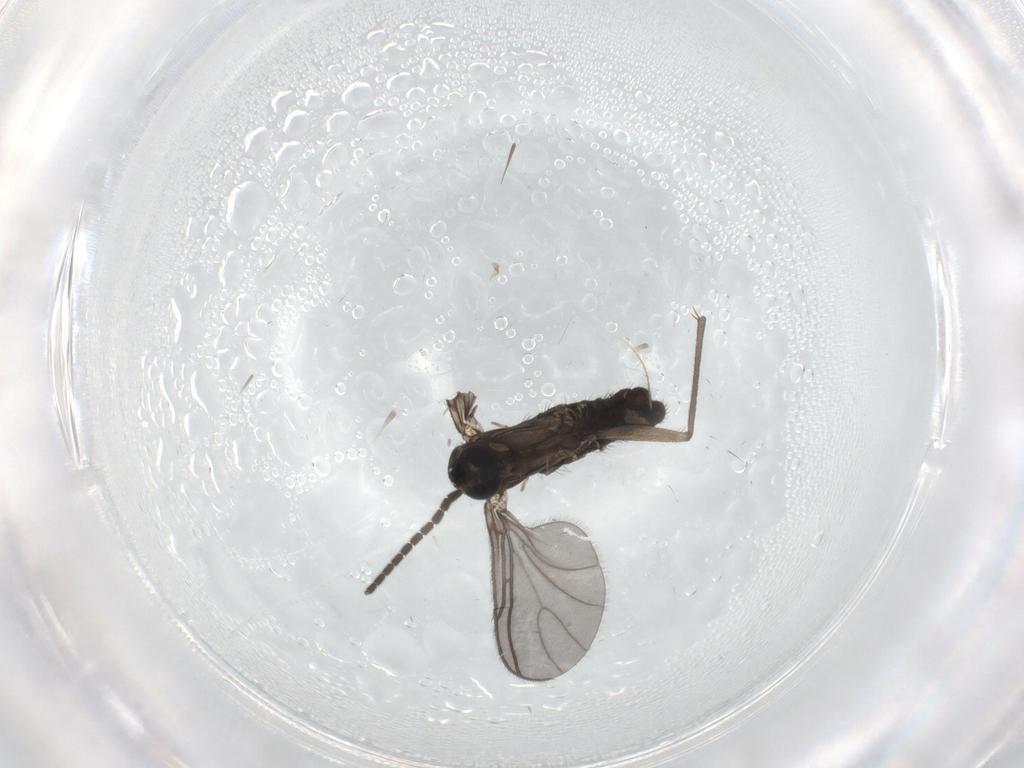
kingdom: Animalia
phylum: Arthropoda
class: Insecta
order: Diptera
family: Sciaridae
